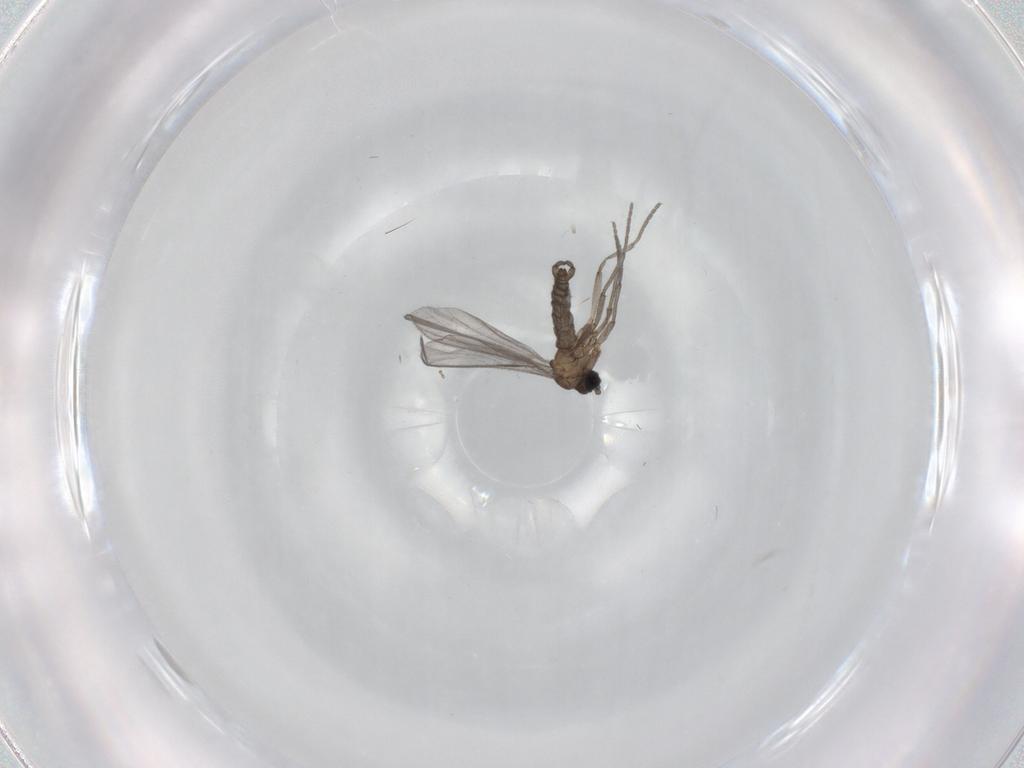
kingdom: Animalia
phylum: Arthropoda
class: Insecta
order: Diptera
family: Sciaridae
